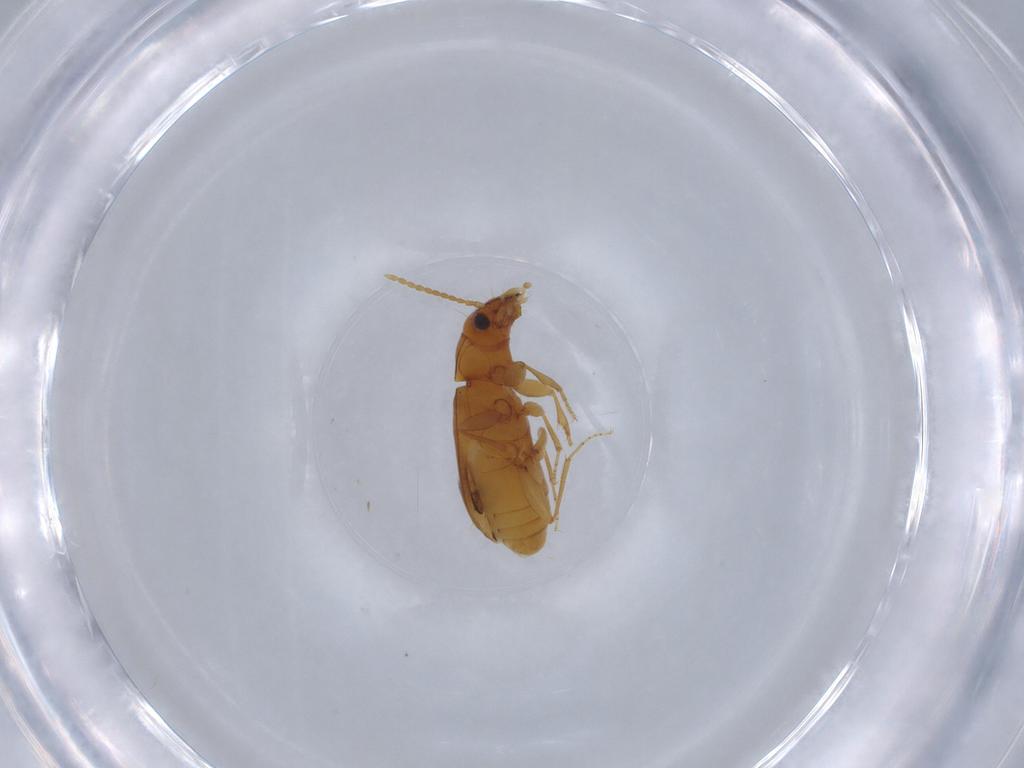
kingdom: Animalia
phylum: Arthropoda
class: Insecta
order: Coleoptera
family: Carabidae
